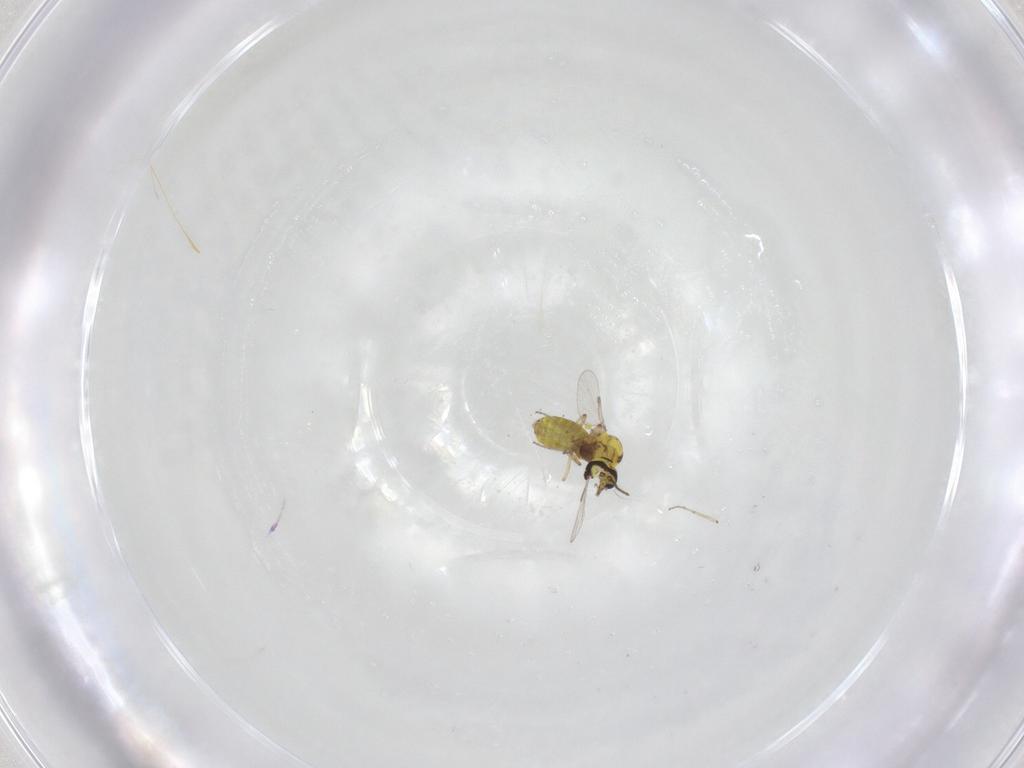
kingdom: Animalia
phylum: Arthropoda
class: Insecta
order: Diptera
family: Ceratopogonidae
